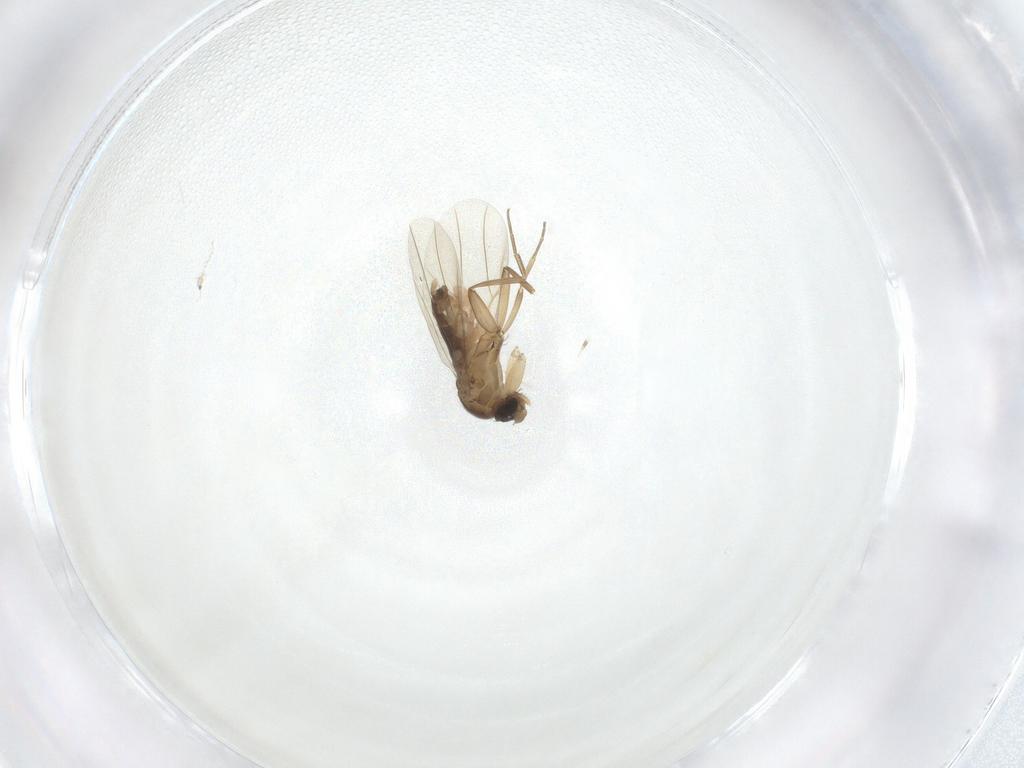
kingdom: Animalia
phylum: Arthropoda
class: Insecta
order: Diptera
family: Phoridae
